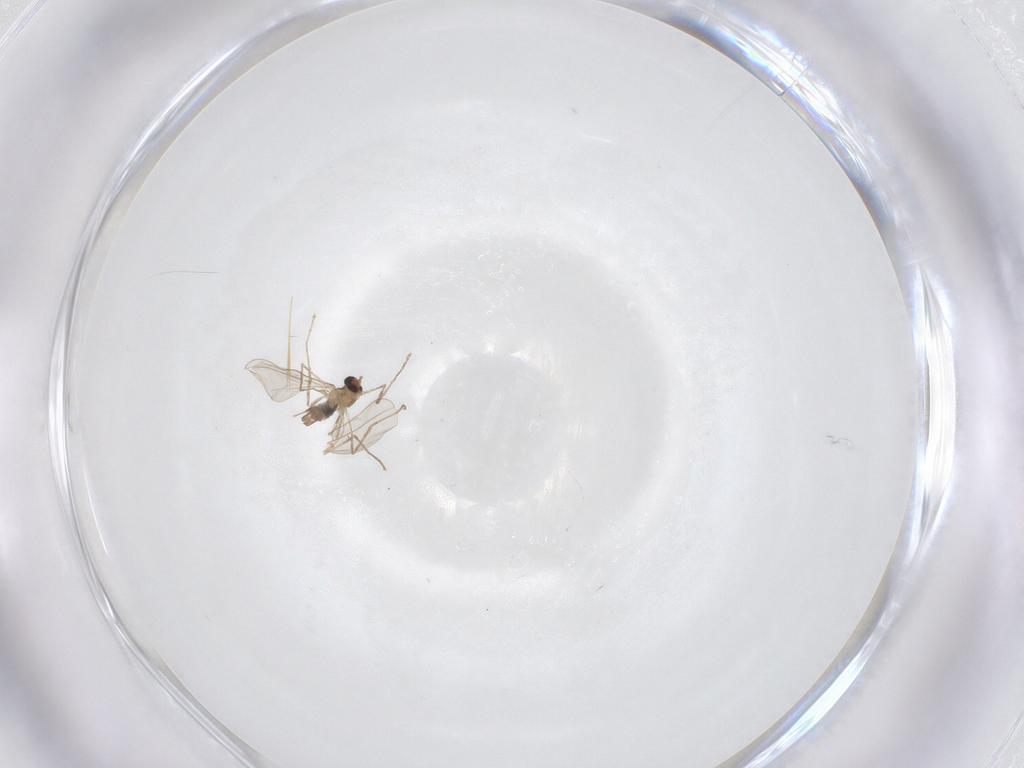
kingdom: Animalia
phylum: Arthropoda
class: Insecta
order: Diptera
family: Cecidomyiidae
